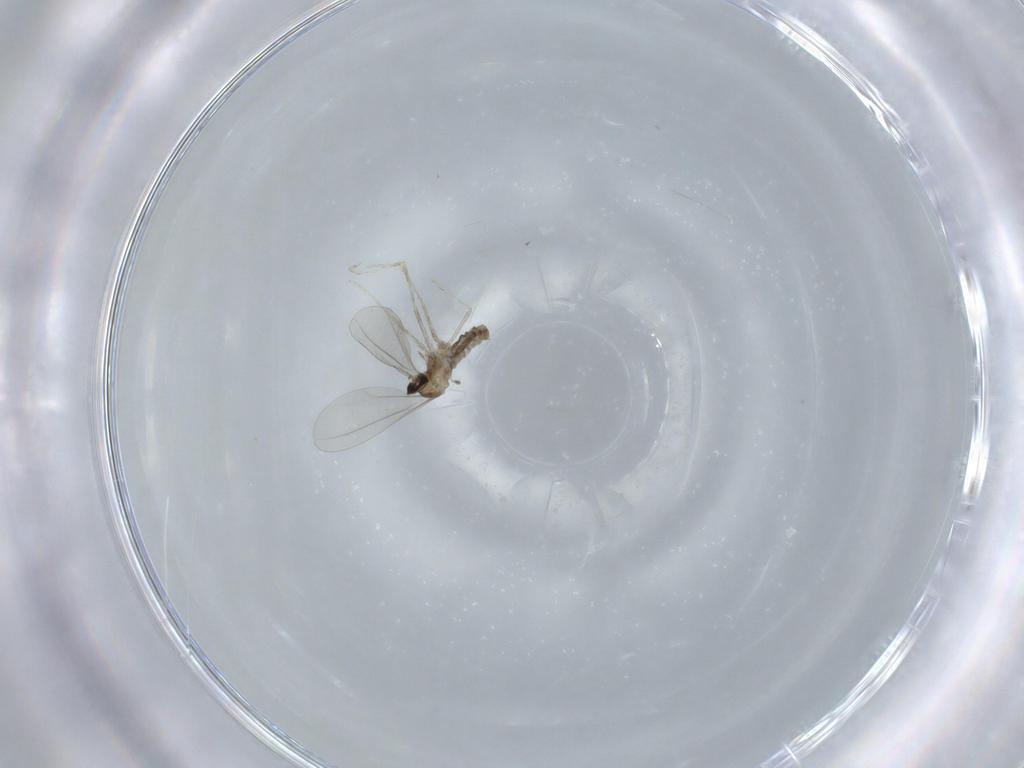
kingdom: Animalia
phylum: Arthropoda
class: Insecta
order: Diptera
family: Cecidomyiidae
